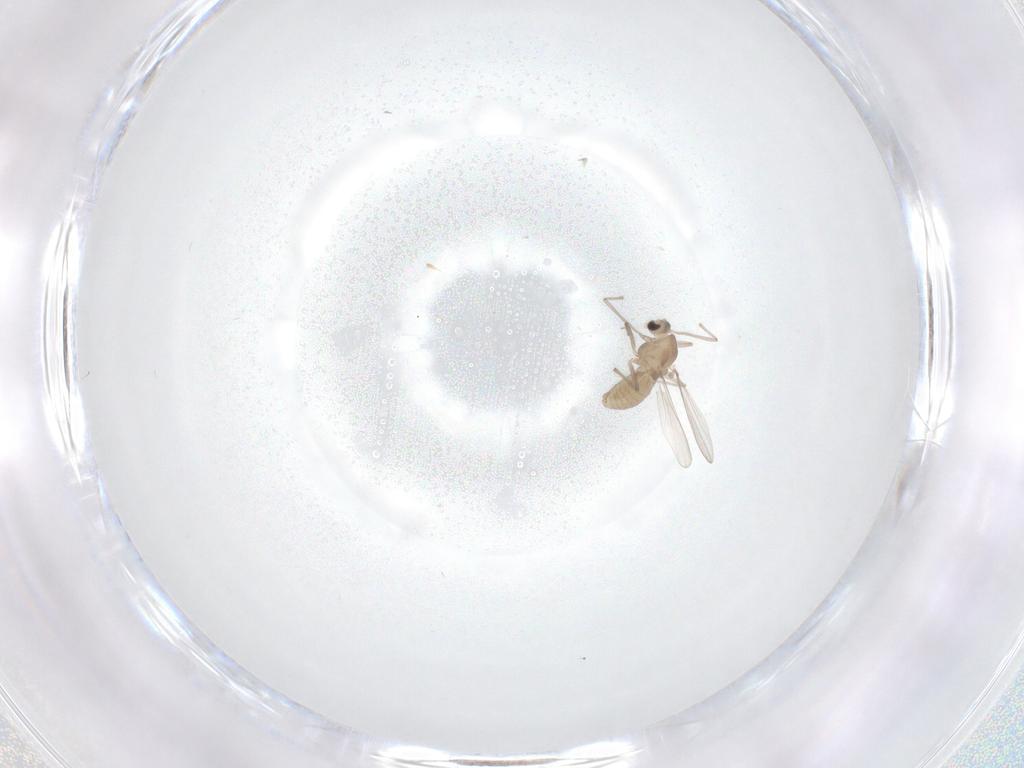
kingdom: Animalia
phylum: Arthropoda
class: Insecta
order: Diptera
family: Chironomidae
